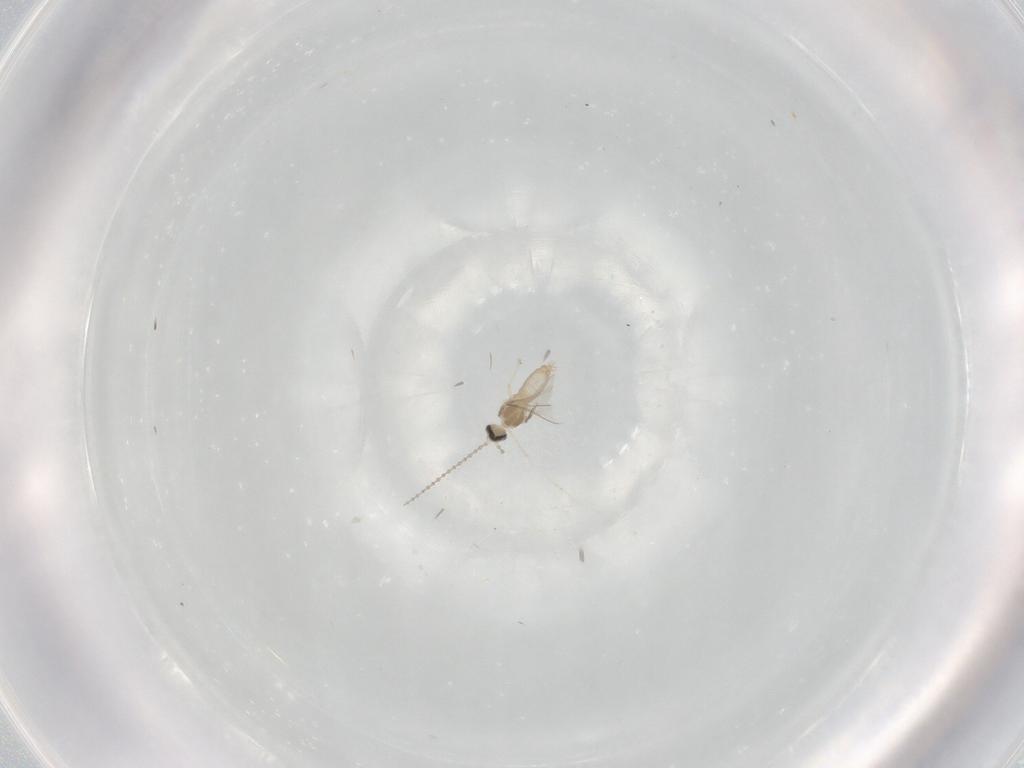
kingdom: Animalia
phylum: Arthropoda
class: Insecta
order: Diptera
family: Cecidomyiidae
